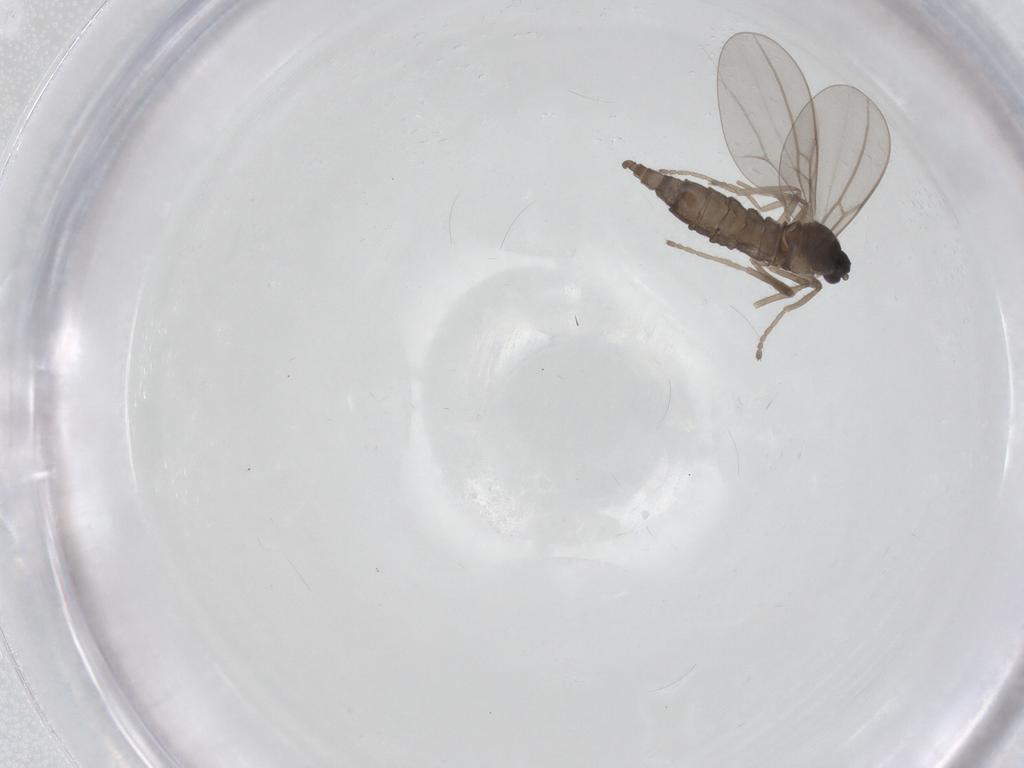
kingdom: Animalia
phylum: Arthropoda
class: Insecta
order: Diptera
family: Cecidomyiidae
